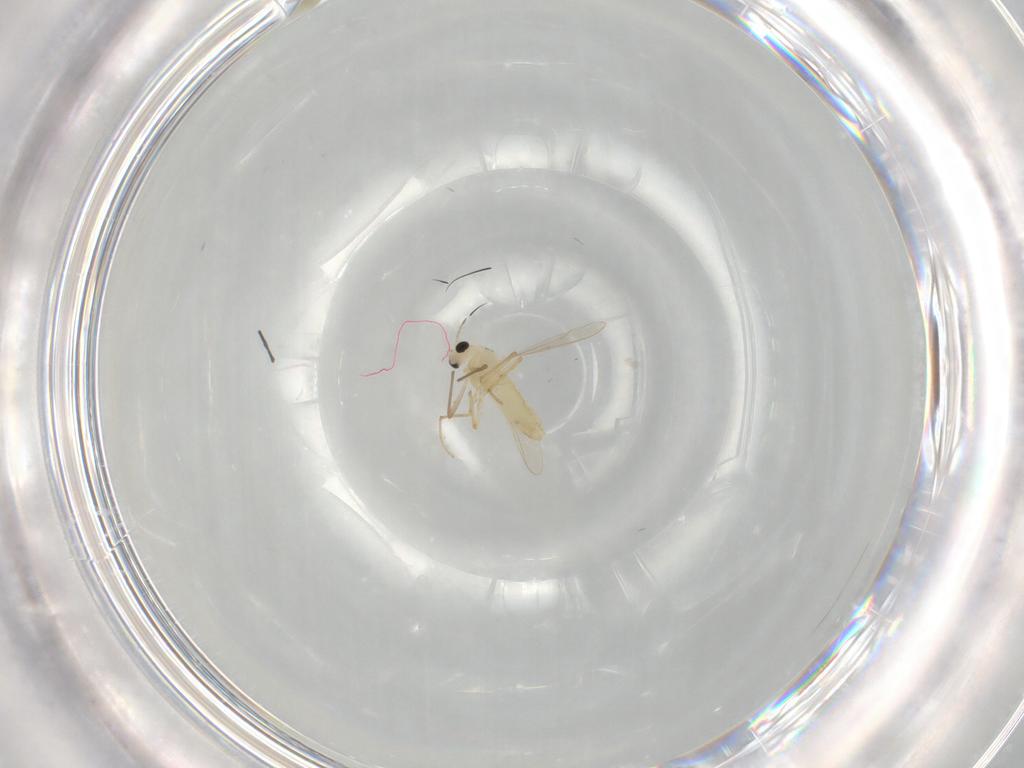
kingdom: Animalia
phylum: Arthropoda
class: Insecta
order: Diptera
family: Chironomidae
